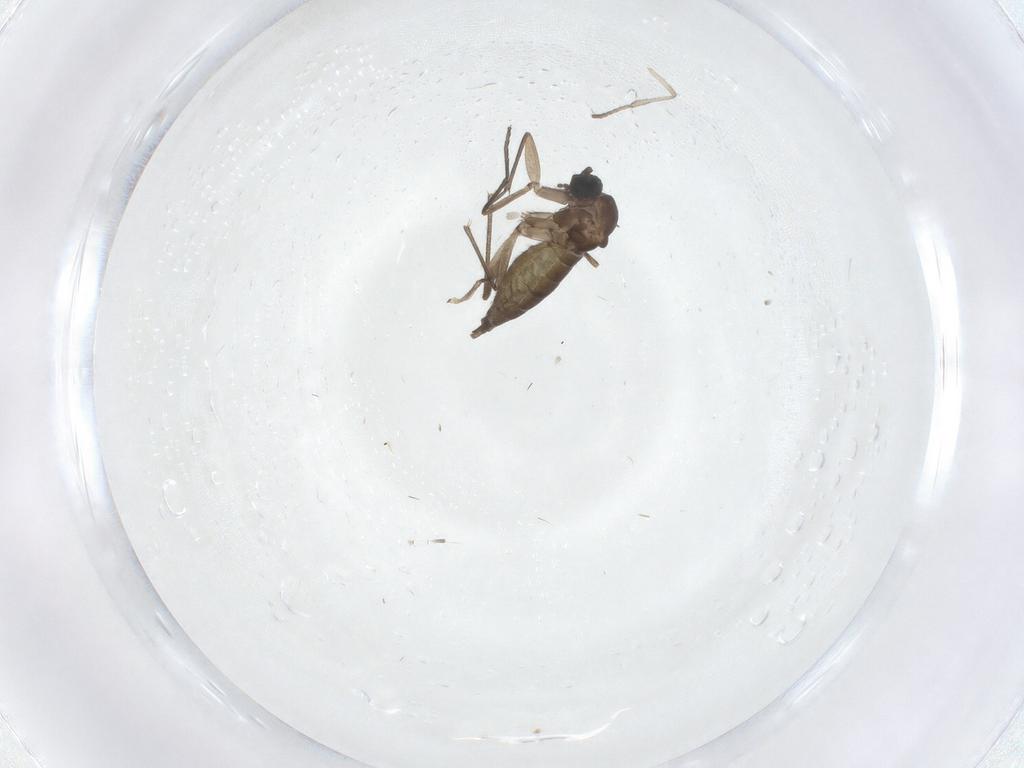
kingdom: Animalia
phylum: Arthropoda
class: Insecta
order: Diptera
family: Sciaridae
